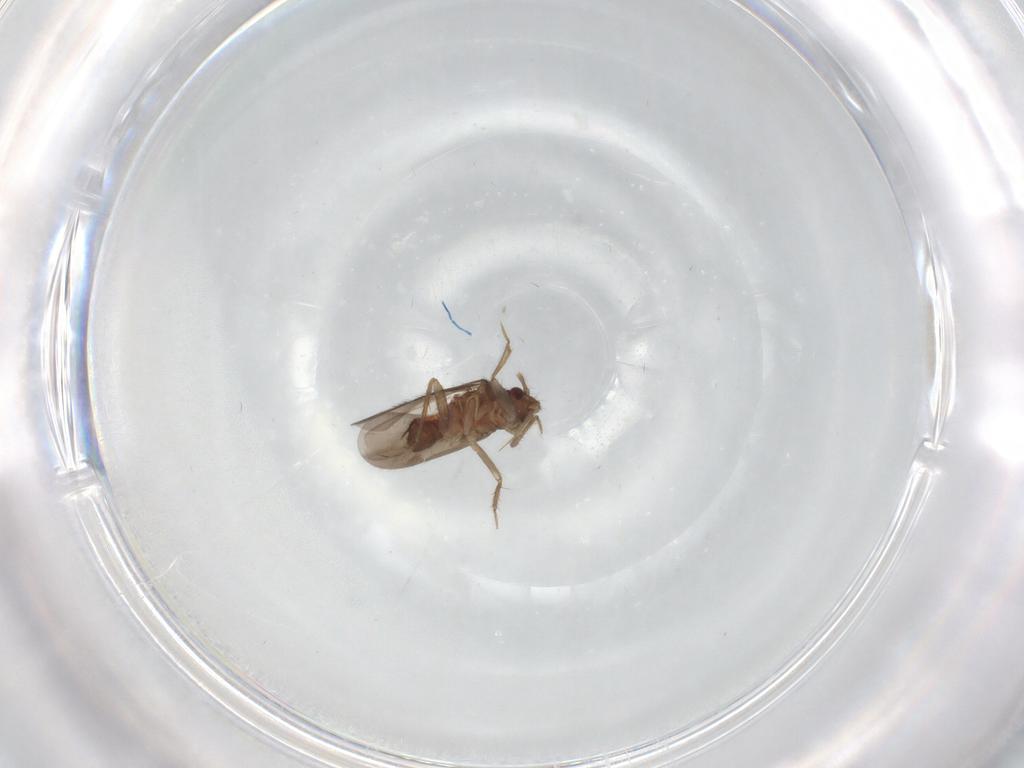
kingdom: Animalia
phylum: Arthropoda
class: Insecta
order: Hemiptera
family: Ceratocombidae
